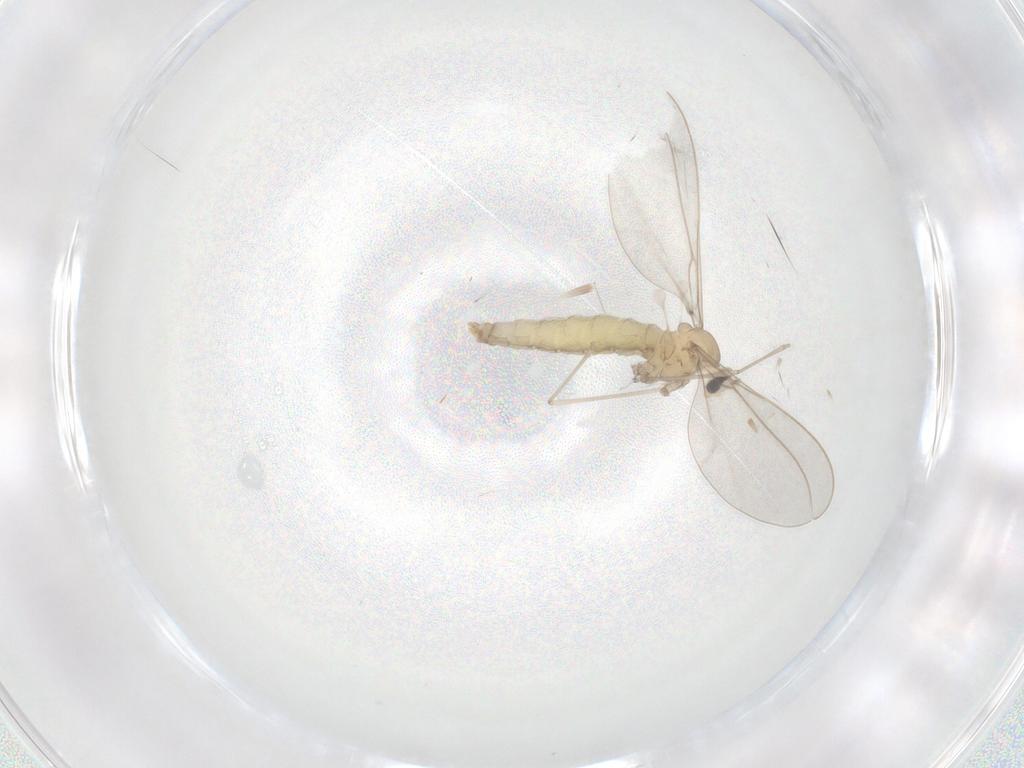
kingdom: Animalia
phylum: Arthropoda
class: Insecta
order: Diptera
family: Cecidomyiidae
